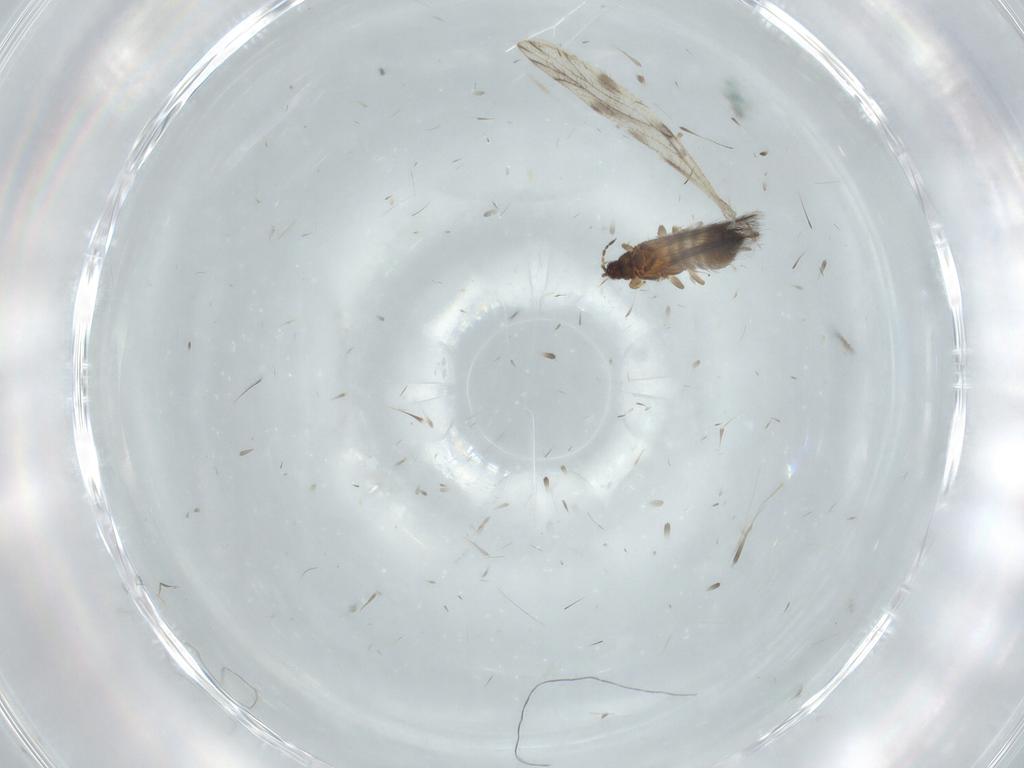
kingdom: Animalia
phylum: Arthropoda
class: Insecta
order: Thysanoptera
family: Thripidae
